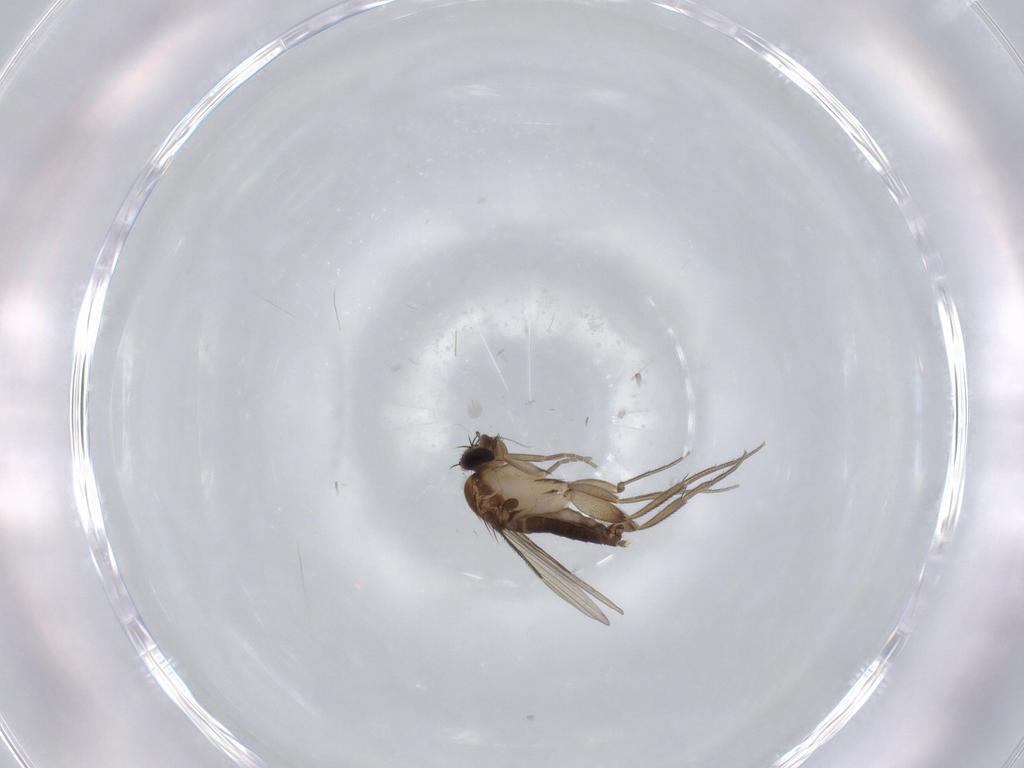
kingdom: Animalia
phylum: Arthropoda
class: Insecta
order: Diptera
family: Phoridae
